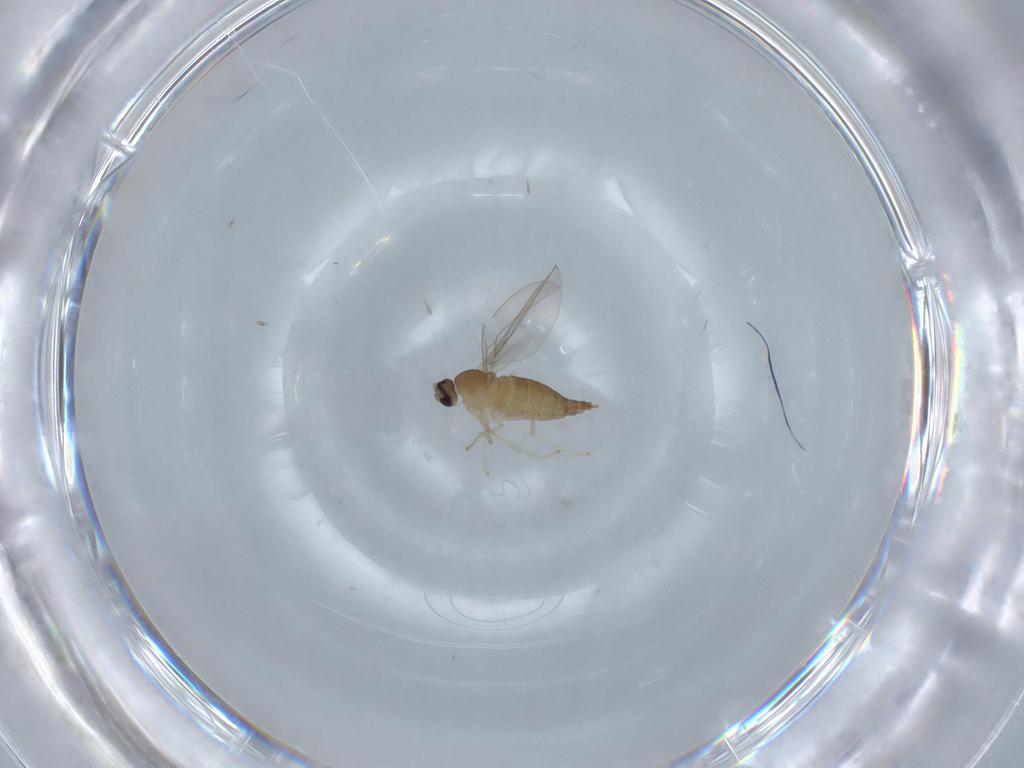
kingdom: Animalia
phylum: Arthropoda
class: Insecta
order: Diptera
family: Cecidomyiidae
